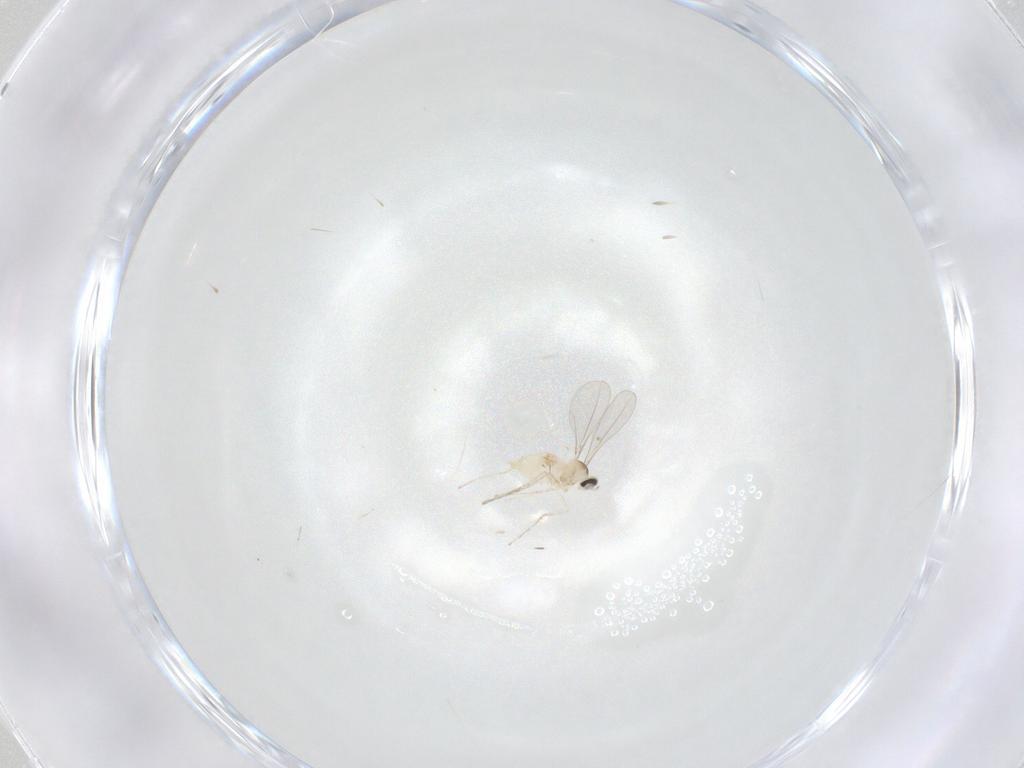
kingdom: Animalia
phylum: Arthropoda
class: Insecta
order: Diptera
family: Cecidomyiidae
